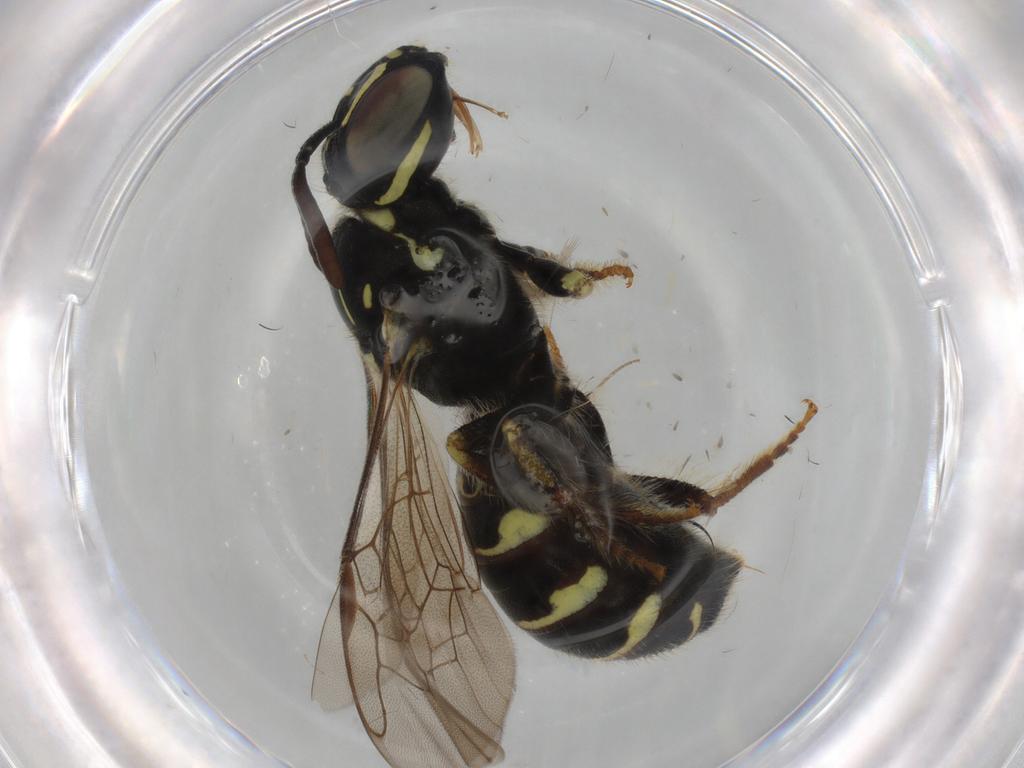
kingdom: Animalia
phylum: Arthropoda
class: Insecta
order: Hymenoptera
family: Apidae
